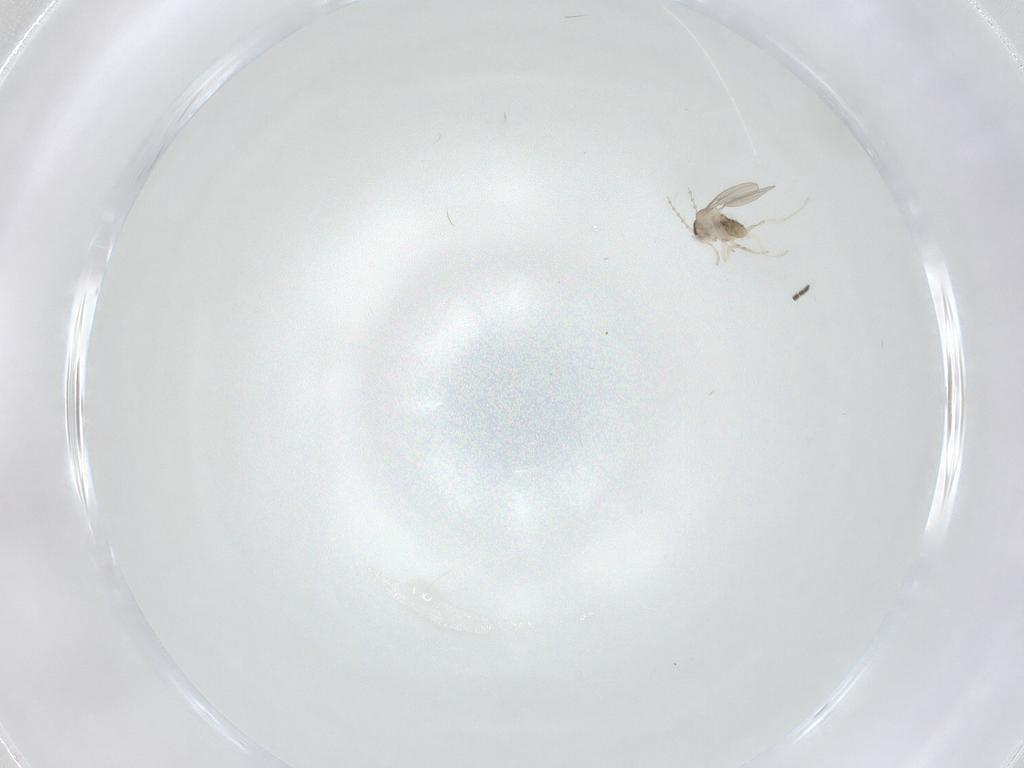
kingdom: Animalia
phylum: Arthropoda
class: Insecta
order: Diptera
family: Cecidomyiidae
